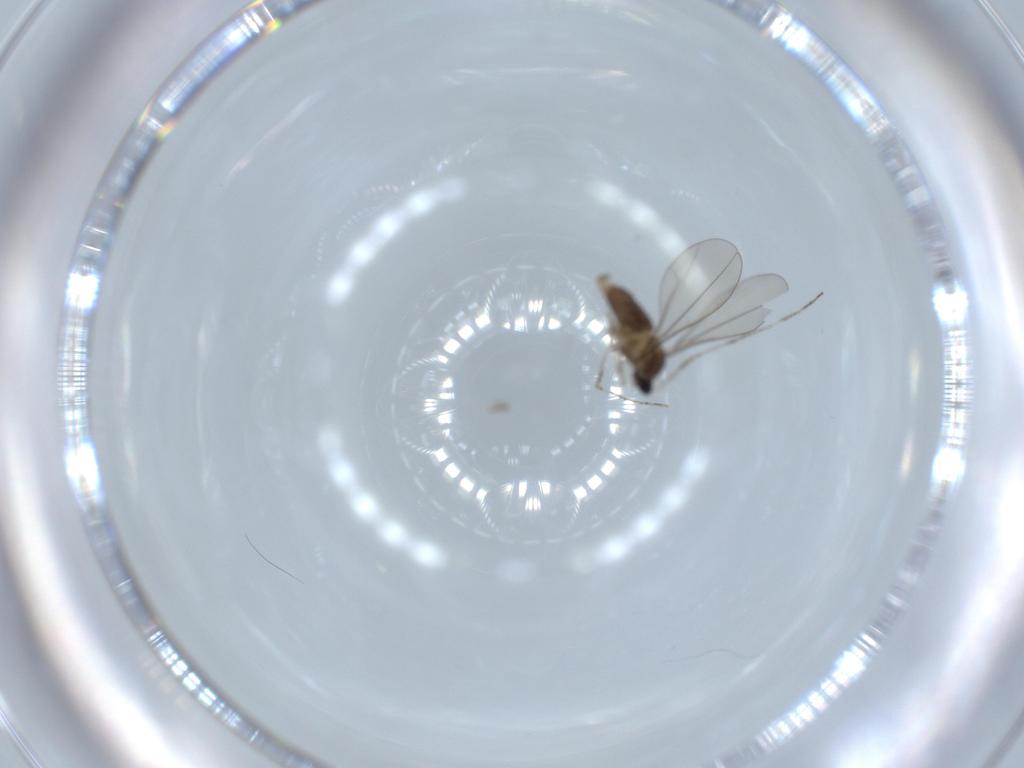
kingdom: Animalia
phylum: Arthropoda
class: Insecta
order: Diptera
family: Cecidomyiidae
